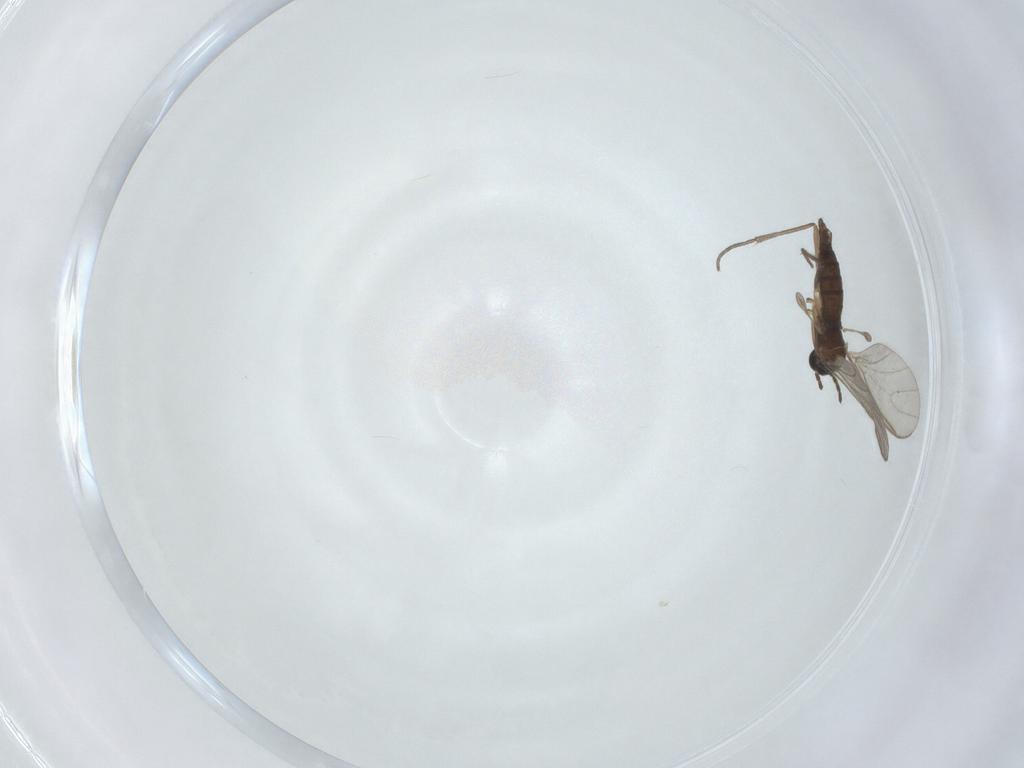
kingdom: Animalia
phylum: Arthropoda
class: Insecta
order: Diptera
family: Sciaridae
